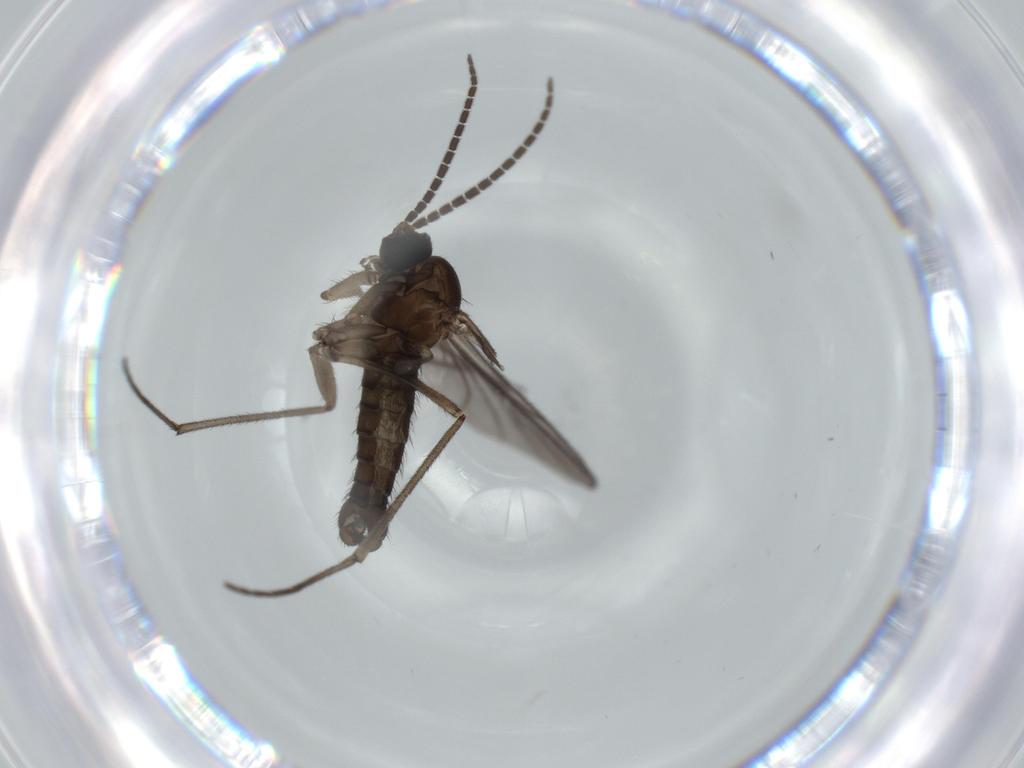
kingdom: Animalia
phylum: Arthropoda
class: Insecta
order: Diptera
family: Sciaridae
